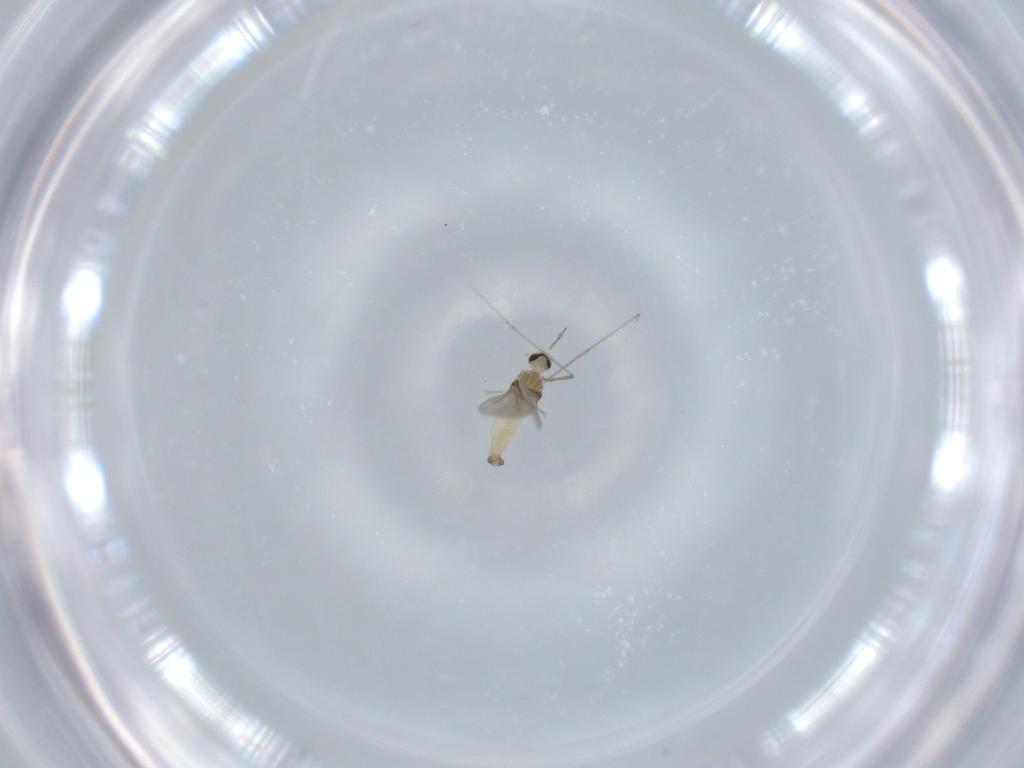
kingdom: Animalia
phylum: Arthropoda
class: Insecta
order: Diptera
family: Cecidomyiidae
